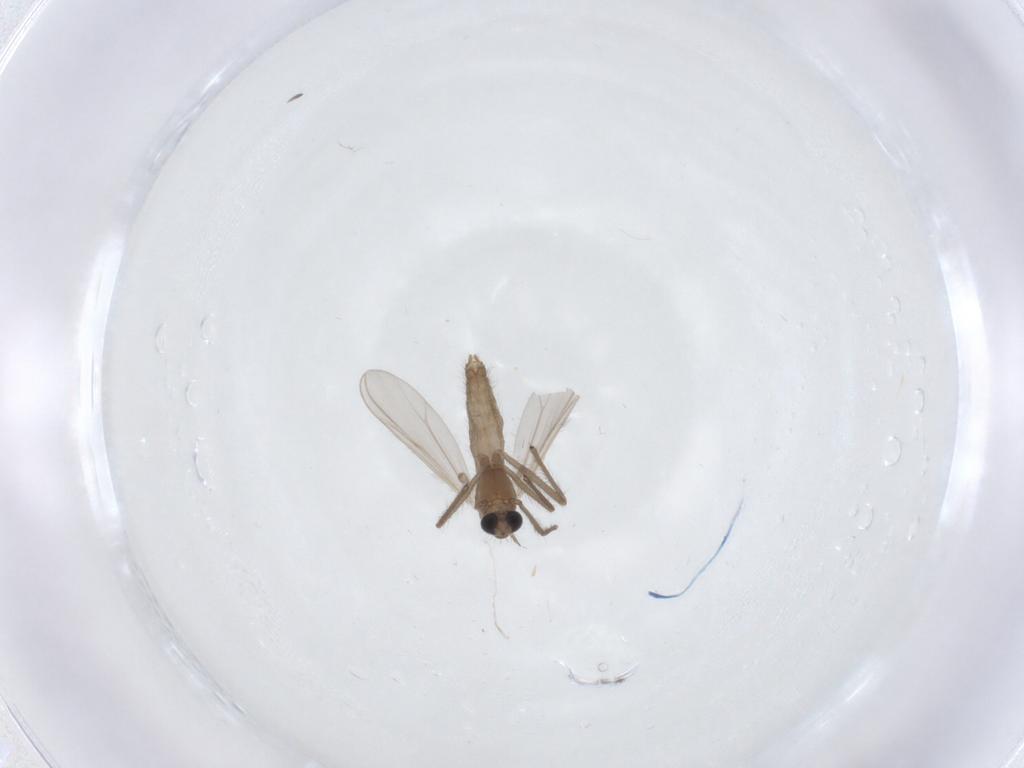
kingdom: Animalia
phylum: Arthropoda
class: Insecta
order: Diptera
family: Chironomidae
